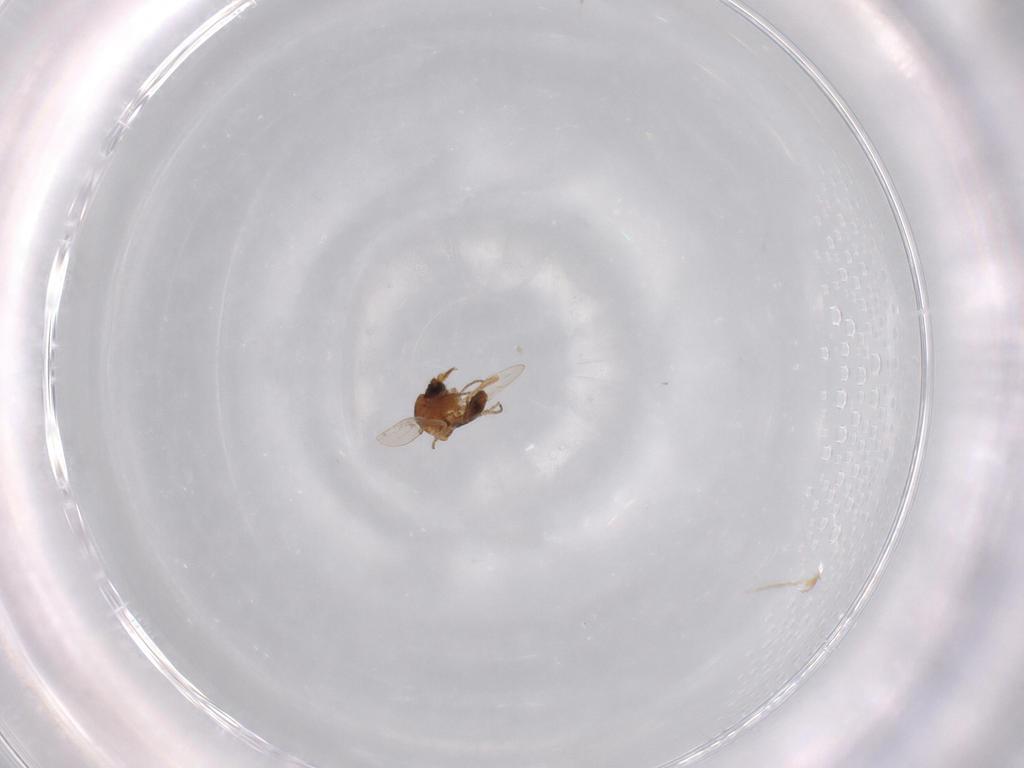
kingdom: Animalia
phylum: Arthropoda
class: Insecta
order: Diptera
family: Ceratopogonidae
